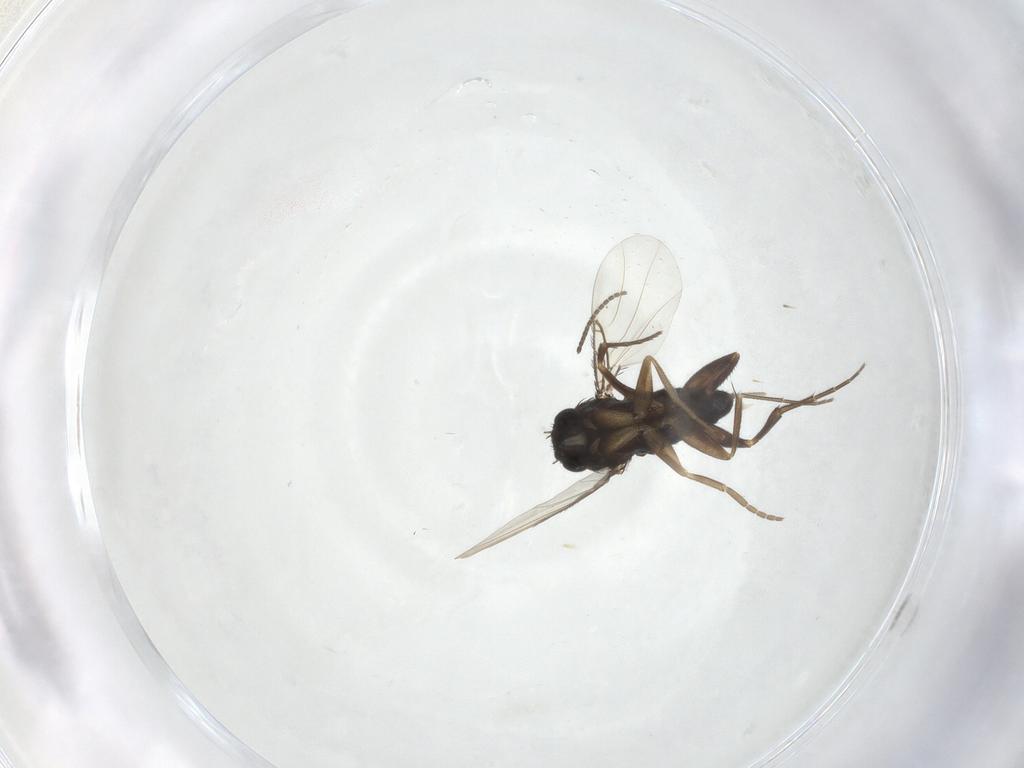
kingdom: Animalia
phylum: Arthropoda
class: Insecta
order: Diptera
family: Phoridae
